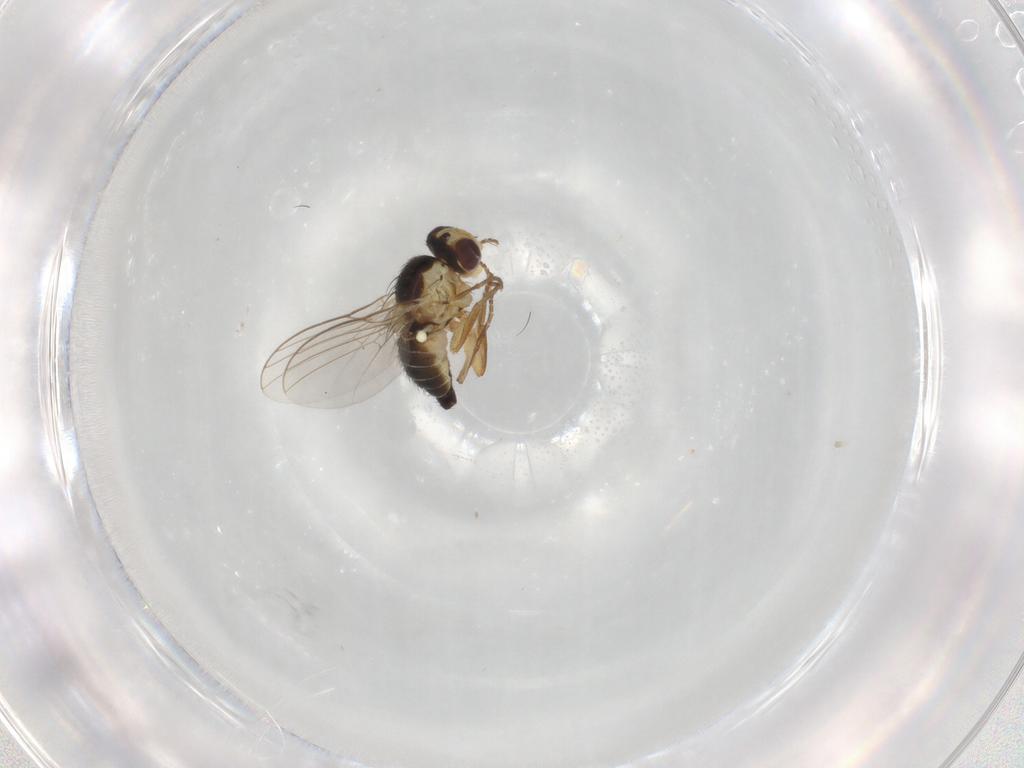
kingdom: Animalia
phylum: Arthropoda
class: Insecta
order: Diptera
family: Agromyzidae
